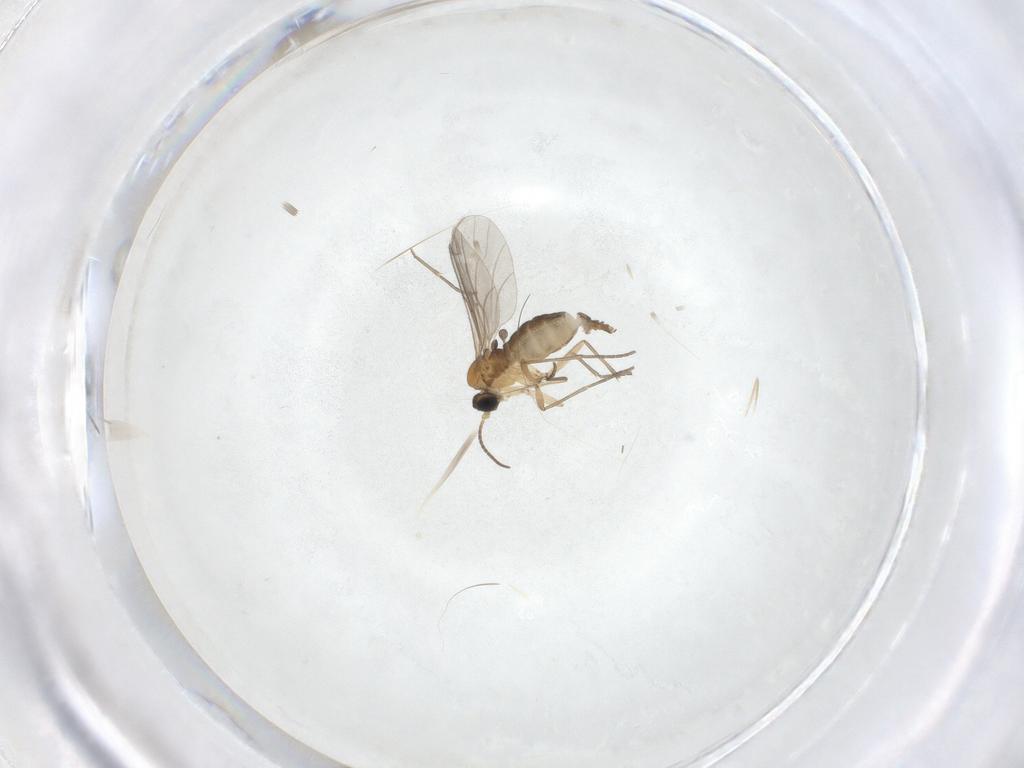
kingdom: Animalia
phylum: Arthropoda
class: Insecta
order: Diptera
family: Sciaridae
